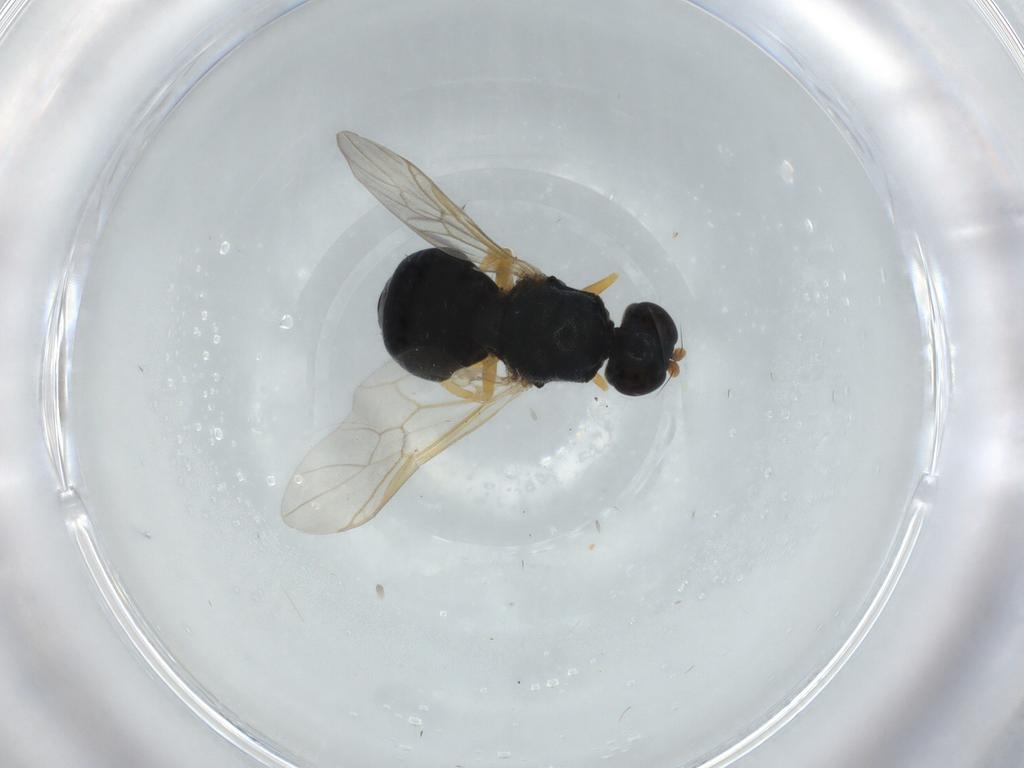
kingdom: Animalia
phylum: Arthropoda
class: Insecta
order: Diptera
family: Stratiomyidae
